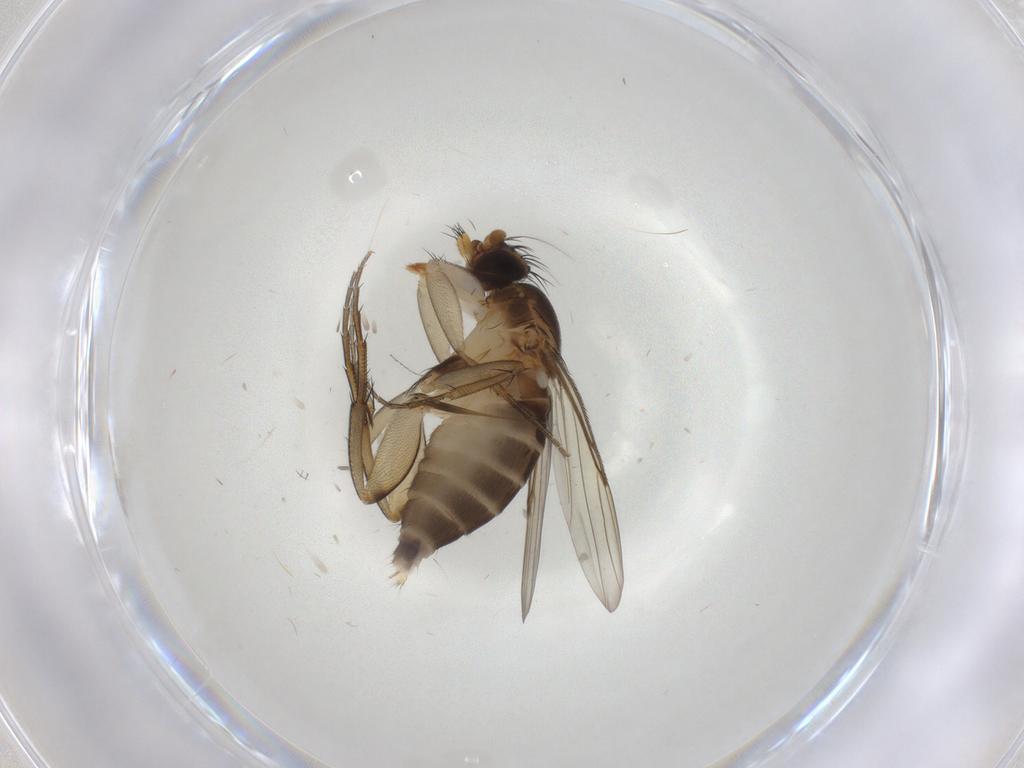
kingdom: Animalia
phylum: Arthropoda
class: Insecta
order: Diptera
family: Phoridae
